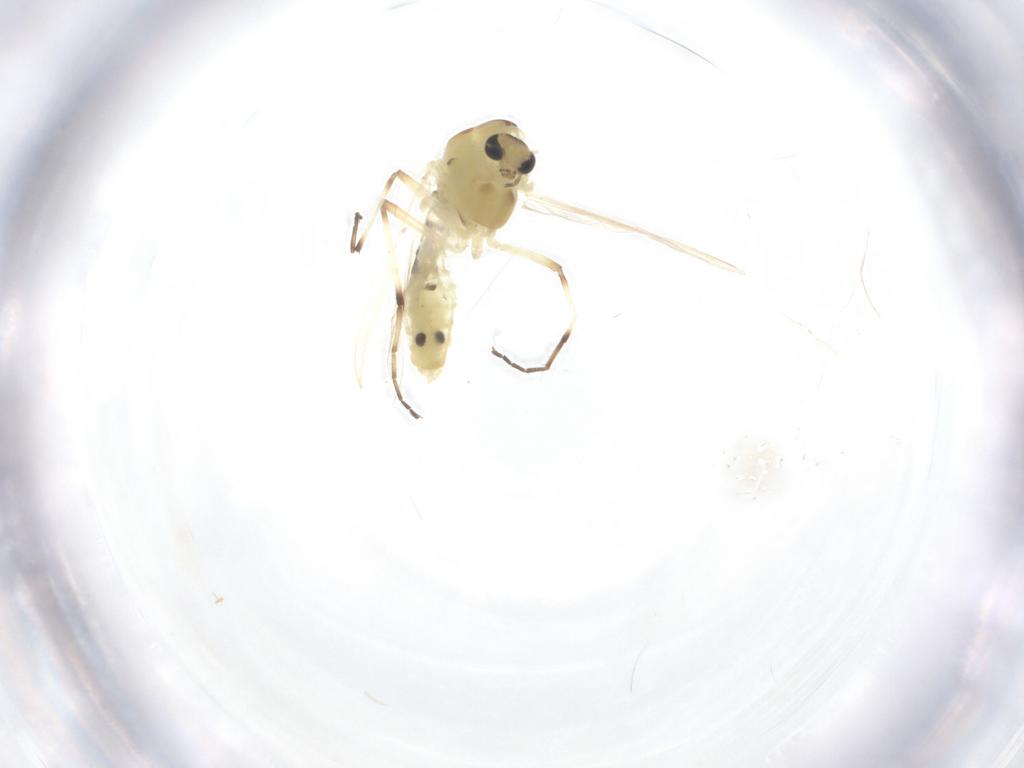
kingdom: Animalia
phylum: Arthropoda
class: Insecta
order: Diptera
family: Chironomidae
